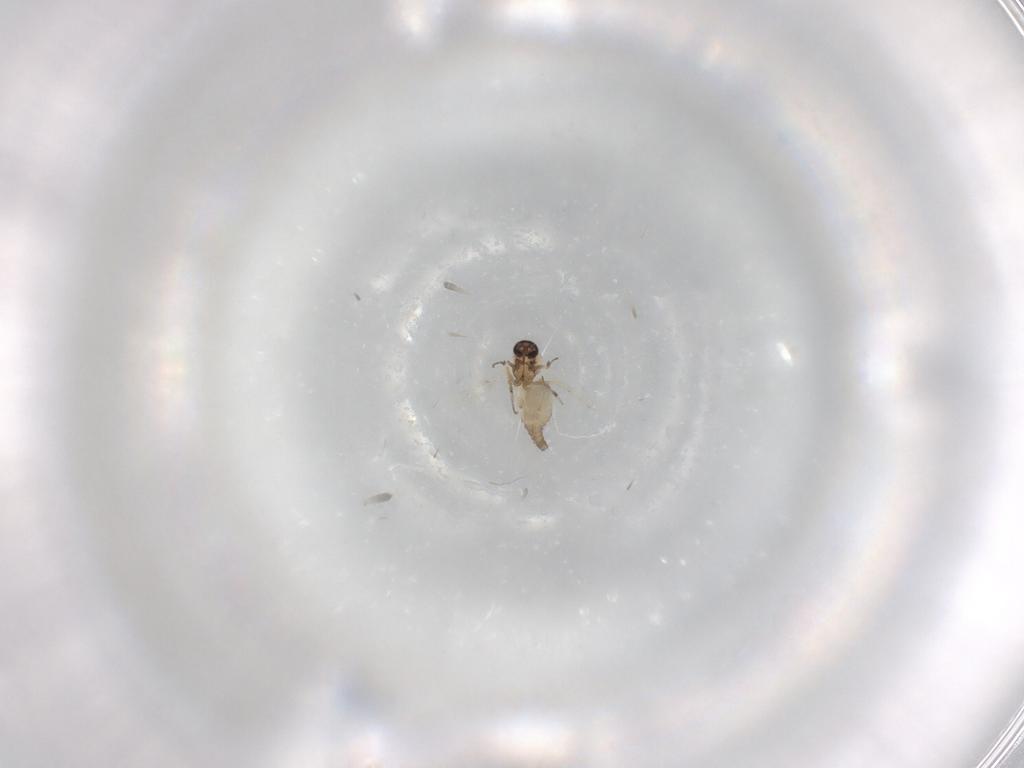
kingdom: Animalia
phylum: Arthropoda
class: Insecta
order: Diptera
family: Ceratopogonidae
